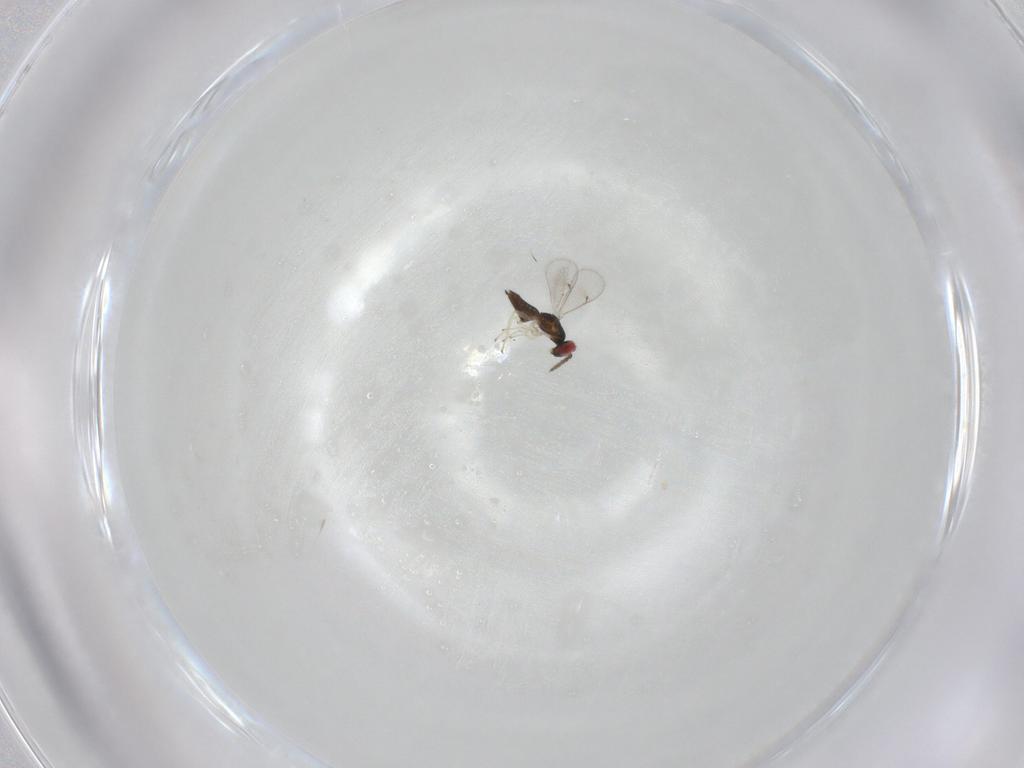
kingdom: Animalia
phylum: Arthropoda
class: Insecta
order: Hymenoptera
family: Eulophidae
